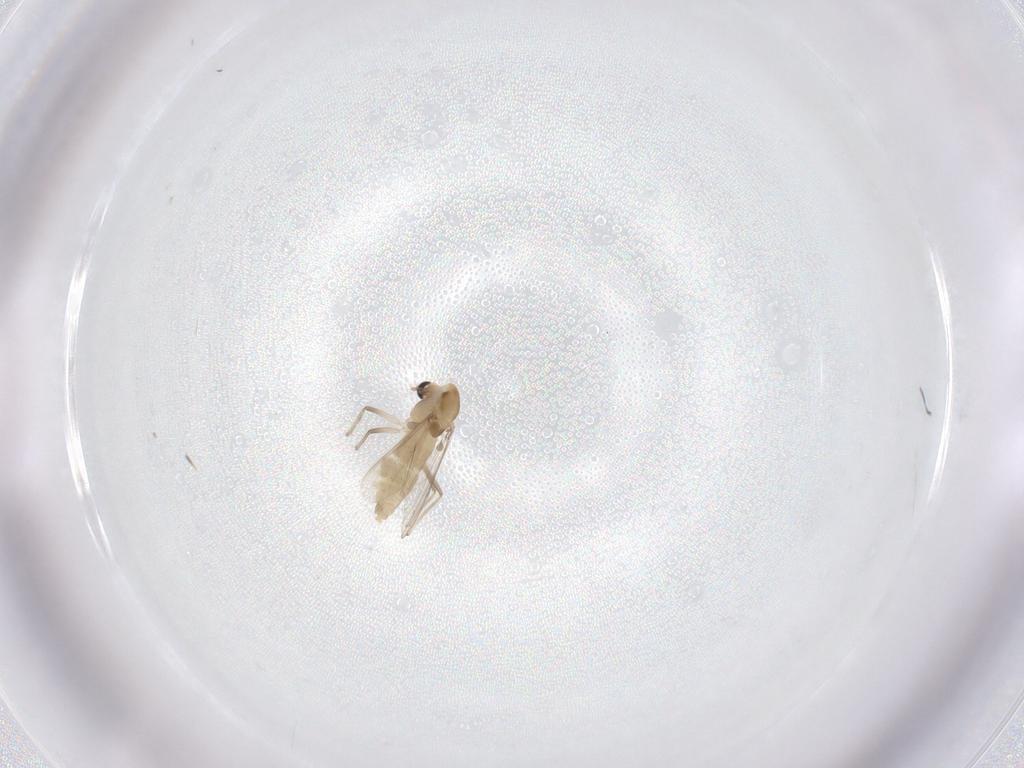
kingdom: Animalia
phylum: Arthropoda
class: Insecta
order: Diptera
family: Chironomidae
